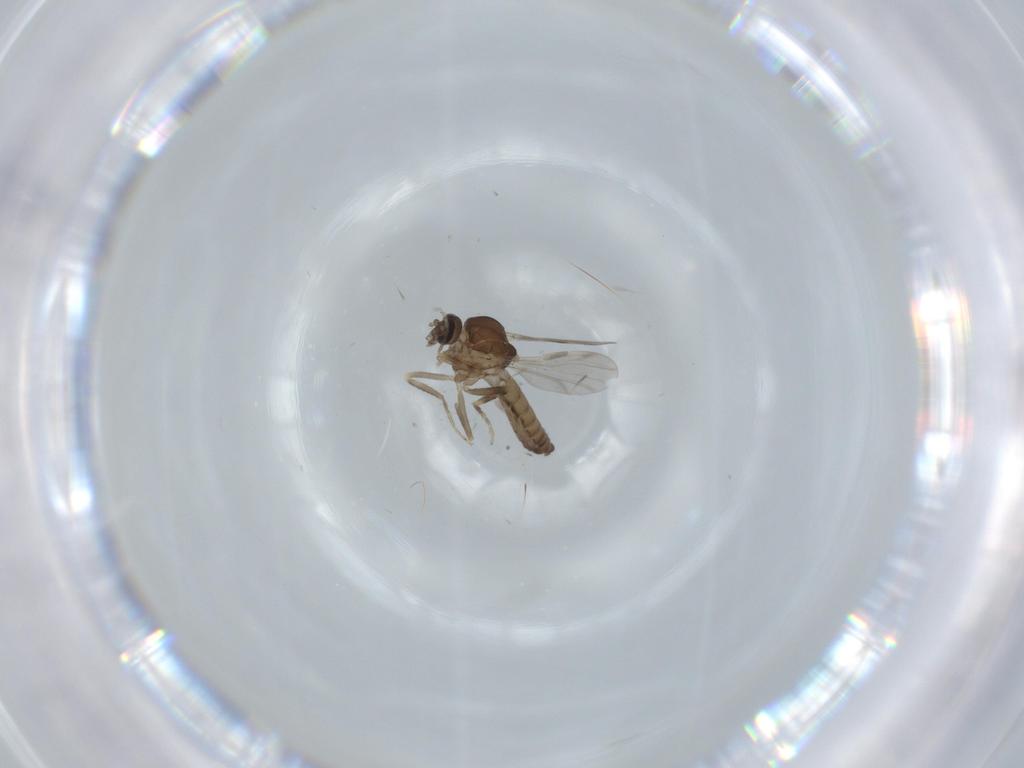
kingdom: Animalia
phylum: Arthropoda
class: Insecta
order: Diptera
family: Ceratopogonidae
